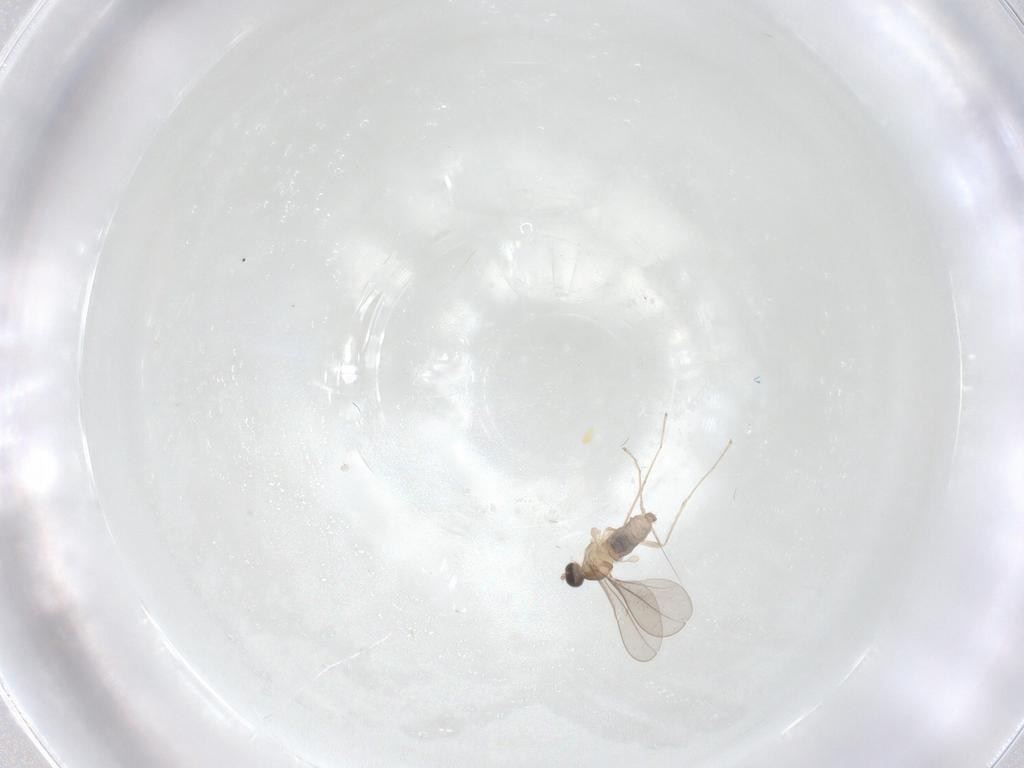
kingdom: Animalia
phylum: Arthropoda
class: Insecta
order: Diptera
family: Cecidomyiidae
